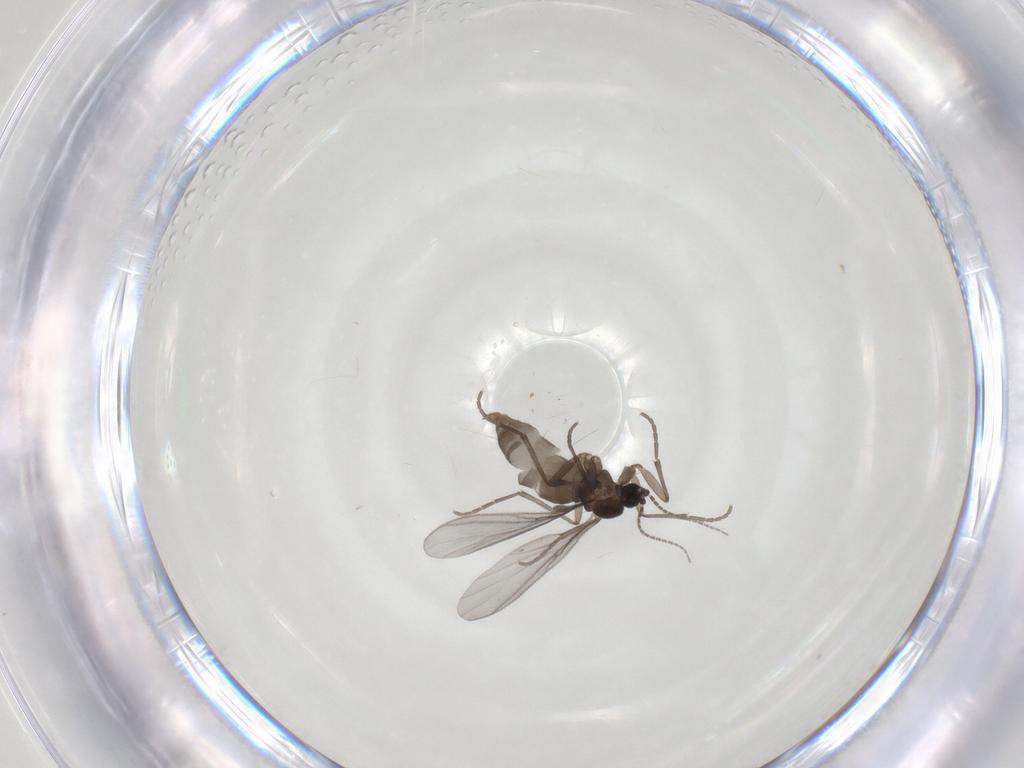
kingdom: Animalia
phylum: Arthropoda
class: Insecta
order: Diptera
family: Sciaridae
